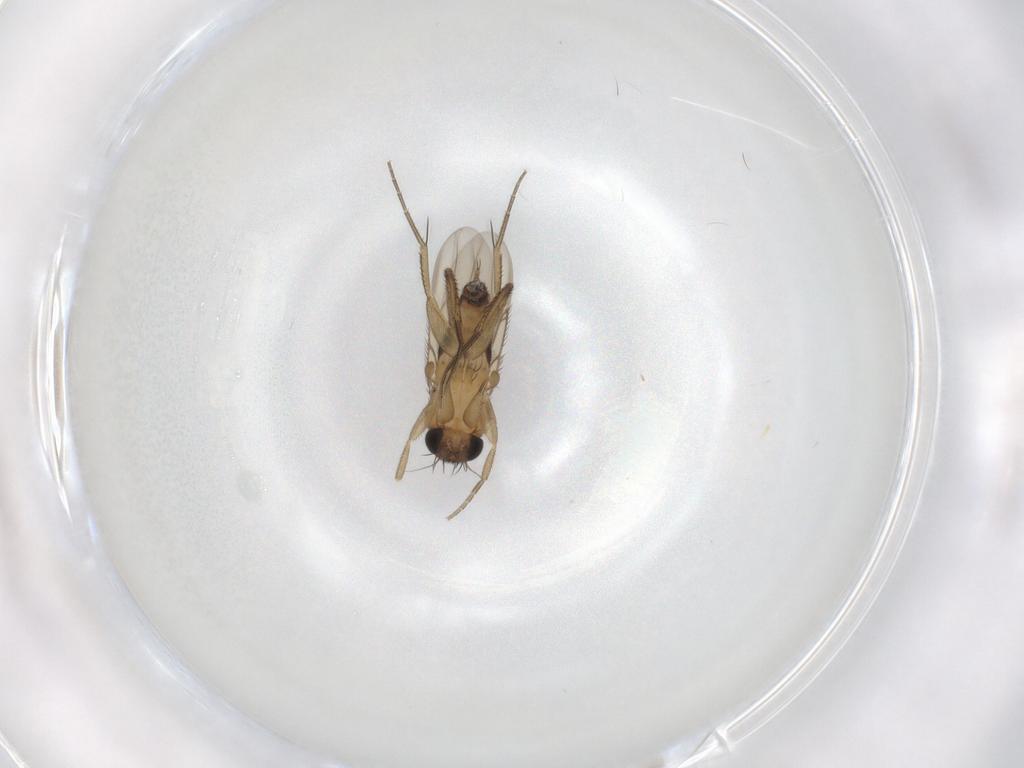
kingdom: Animalia
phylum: Arthropoda
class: Insecta
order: Diptera
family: Phoridae
